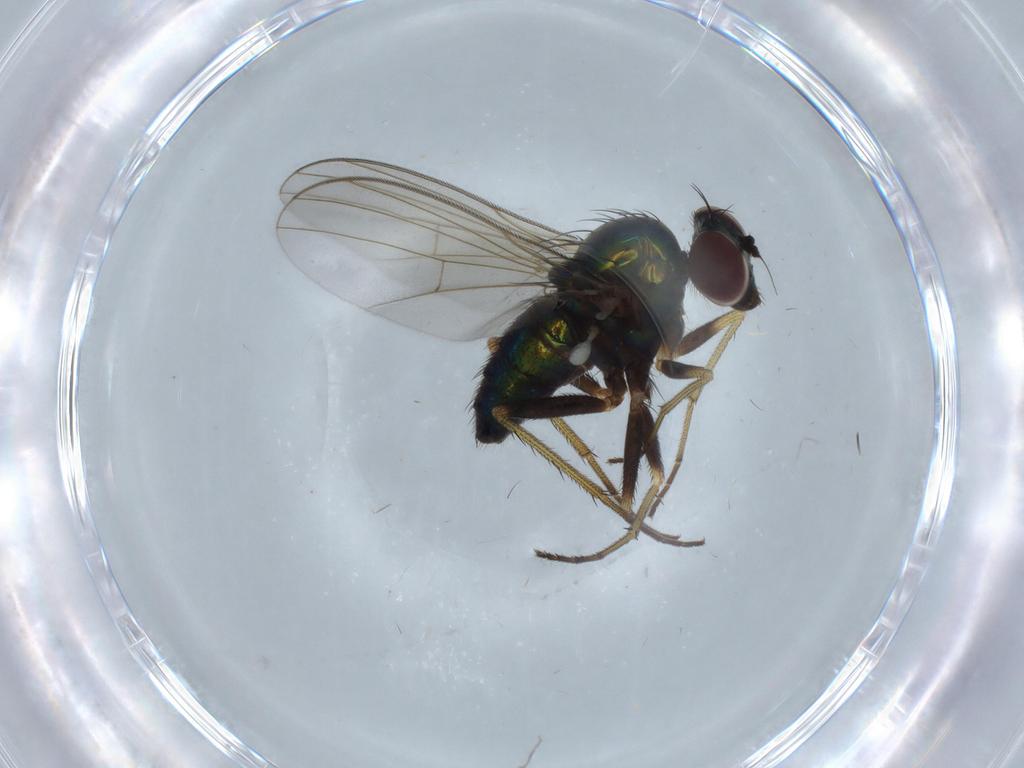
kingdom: Animalia
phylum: Arthropoda
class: Insecta
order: Diptera
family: Dolichopodidae
